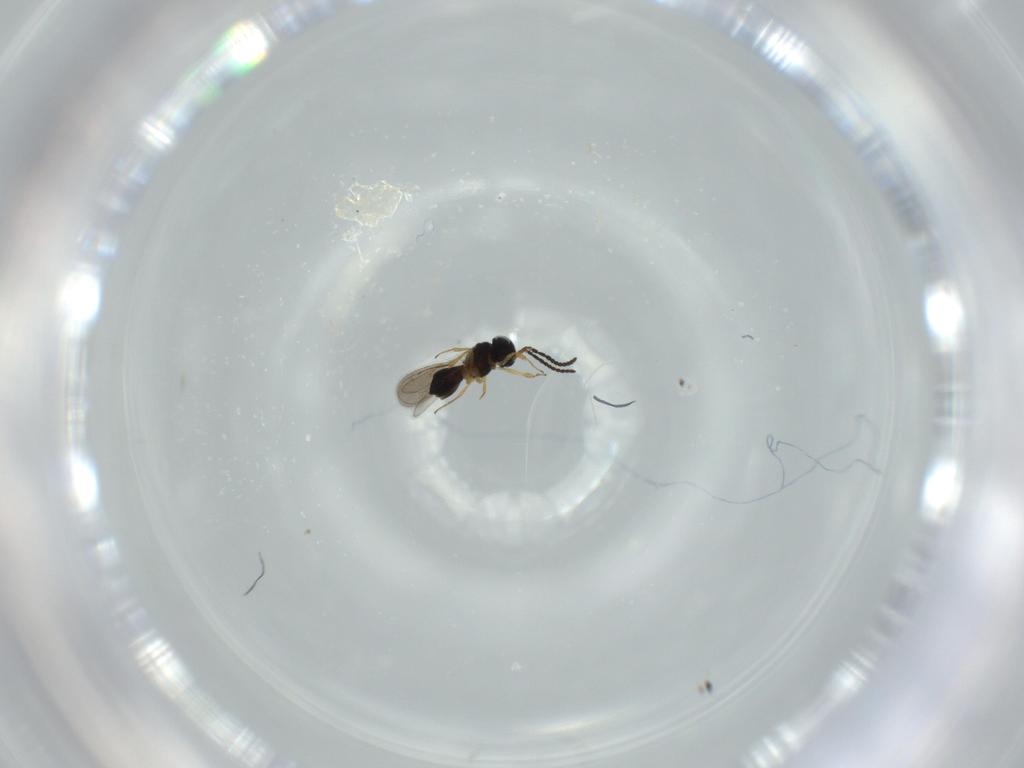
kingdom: Animalia
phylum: Arthropoda
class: Insecta
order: Hymenoptera
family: Scelionidae
